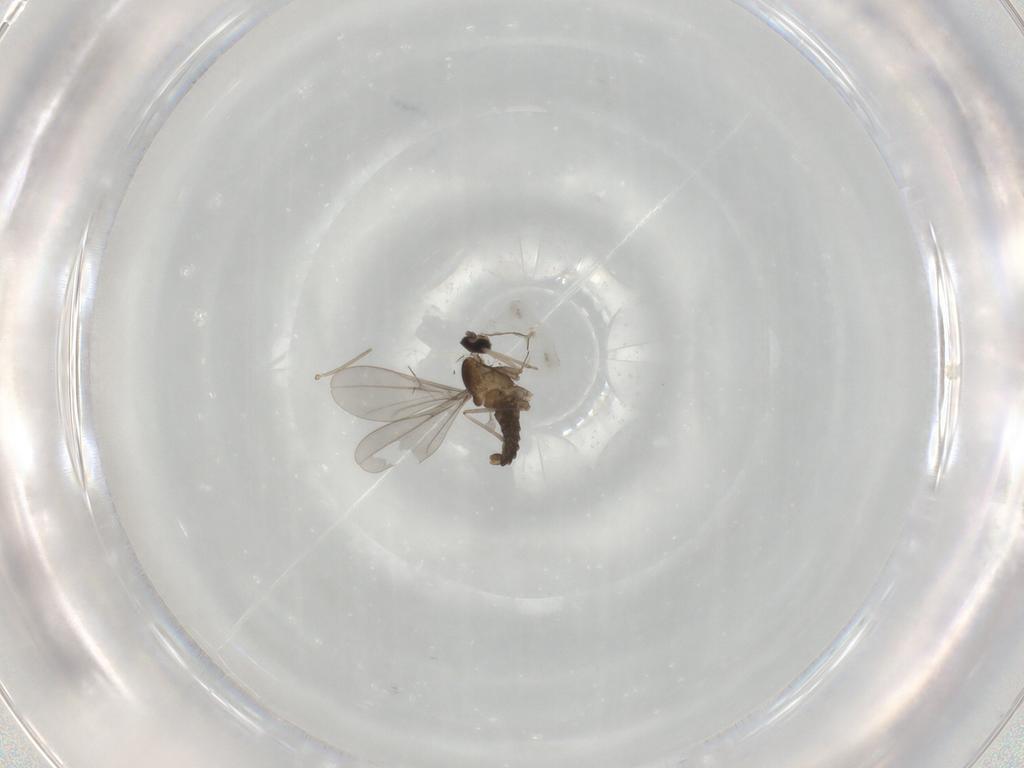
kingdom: Animalia
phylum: Arthropoda
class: Insecta
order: Diptera
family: Cecidomyiidae
